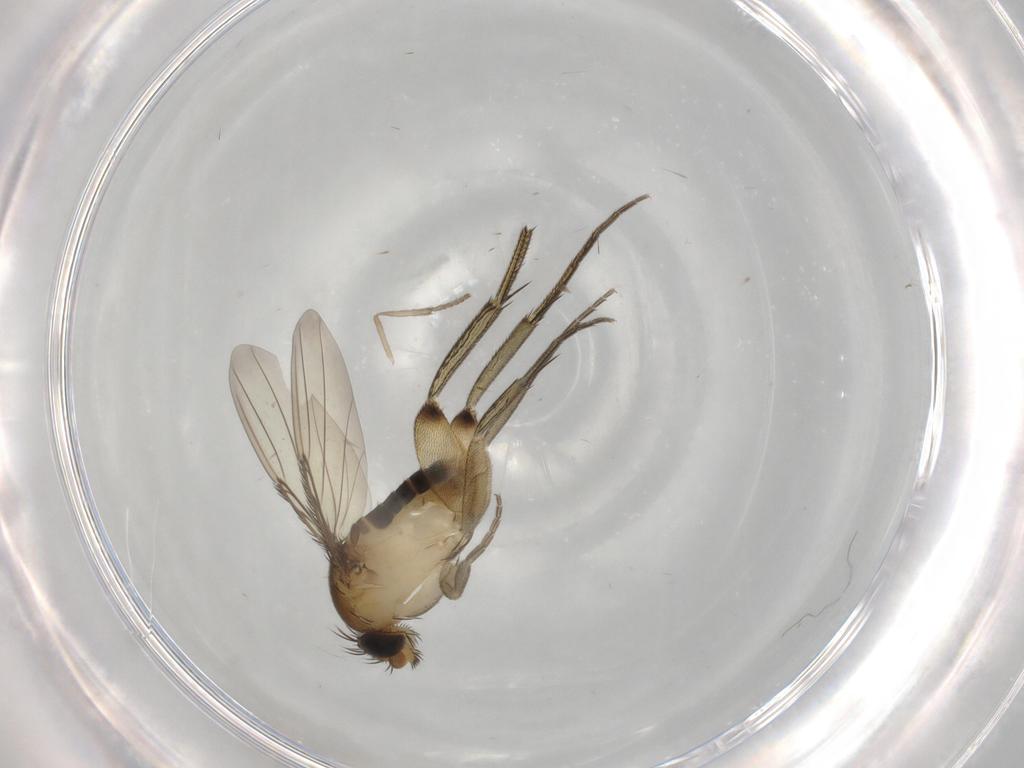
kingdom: Animalia
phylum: Arthropoda
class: Insecta
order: Diptera
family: Phoridae
